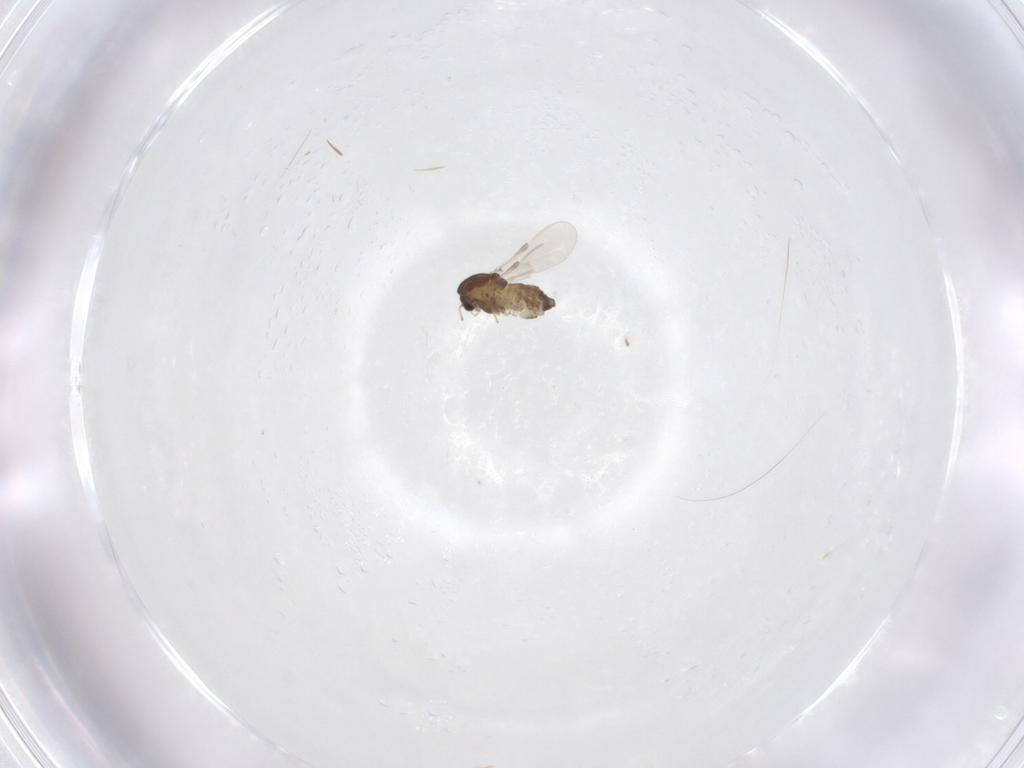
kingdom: Animalia
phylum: Arthropoda
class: Insecta
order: Diptera
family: Chironomidae
